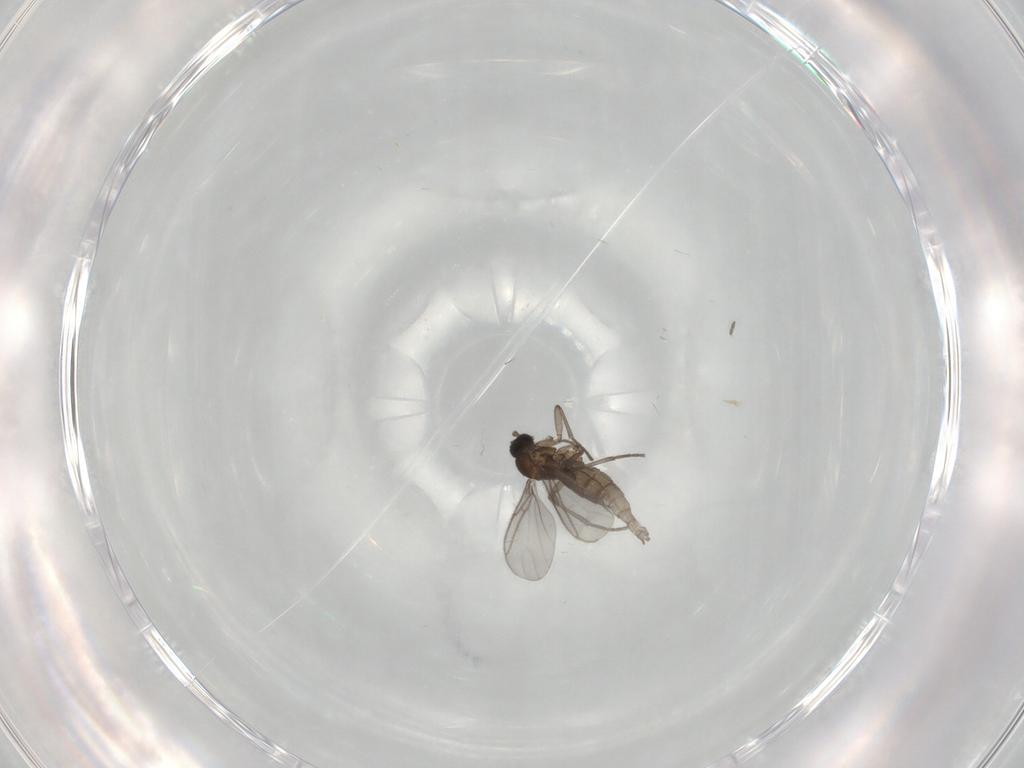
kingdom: Animalia
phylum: Arthropoda
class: Insecta
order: Diptera
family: Sciaridae
